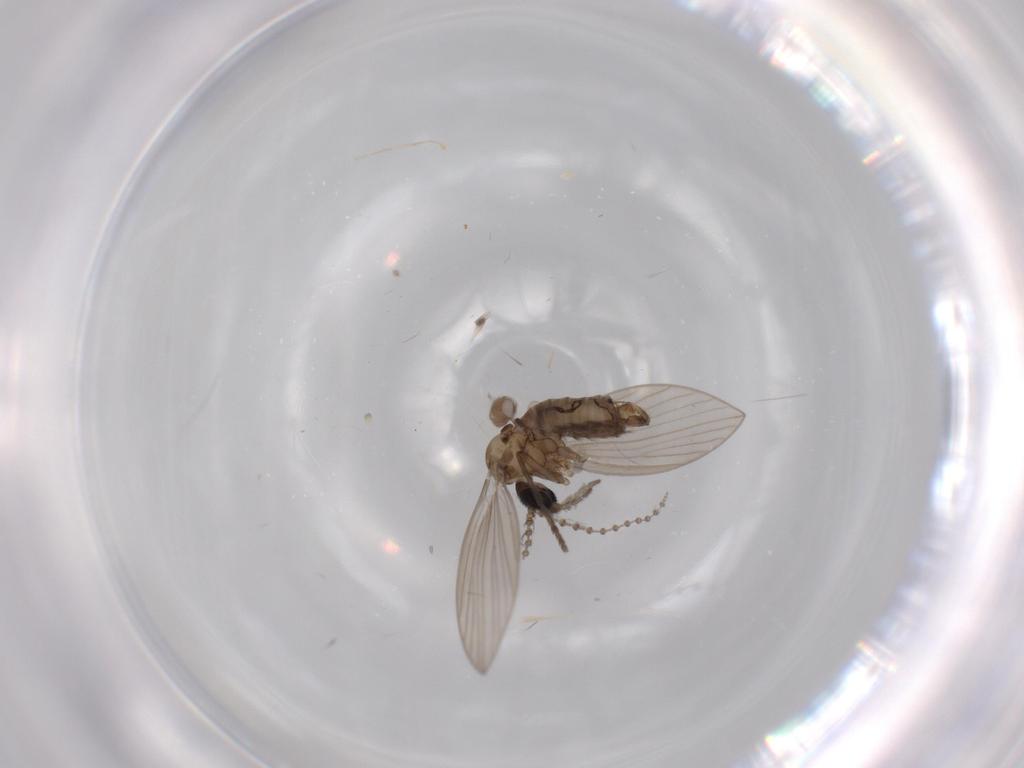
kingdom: Animalia
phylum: Arthropoda
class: Insecta
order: Diptera
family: Psychodidae
